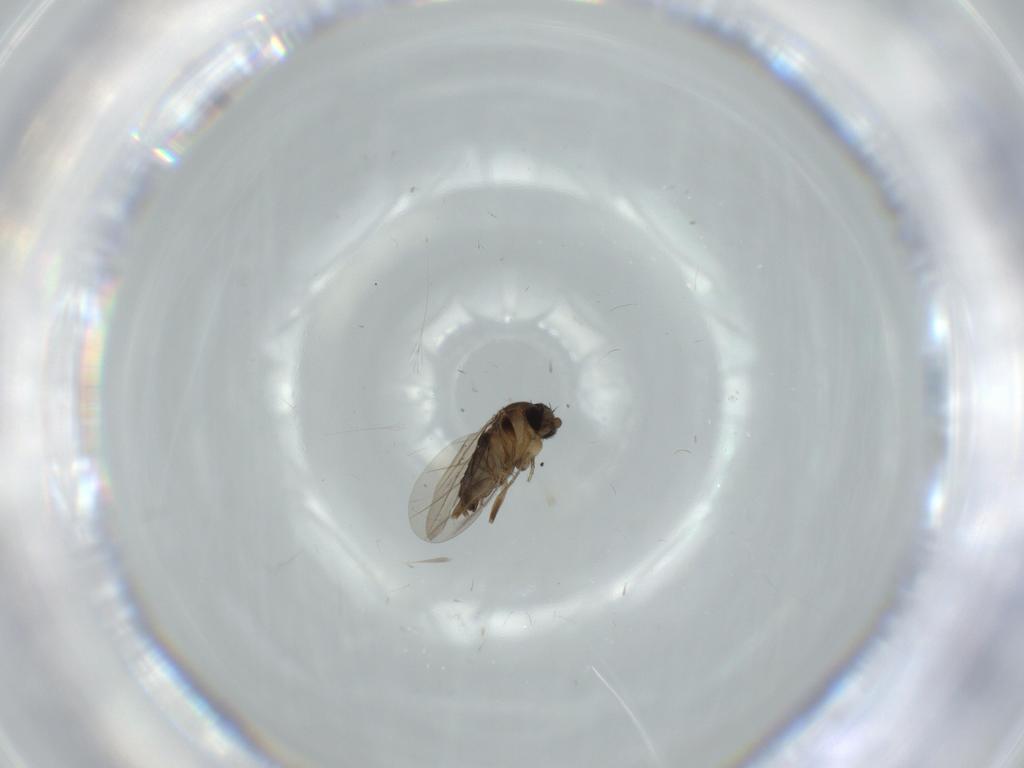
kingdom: Animalia
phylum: Arthropoda
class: Insecta
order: Diptera
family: Phoridae
